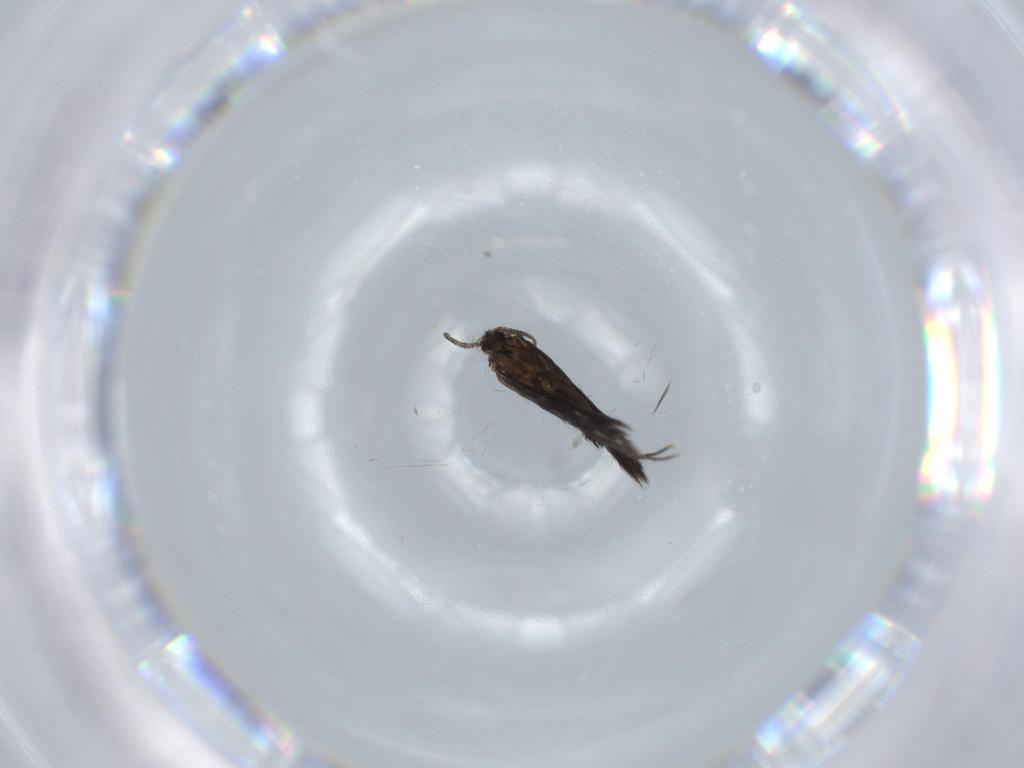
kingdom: Animalia
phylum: Arthropoda
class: Insecta
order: Trichoptera
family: Hydroptilidae
